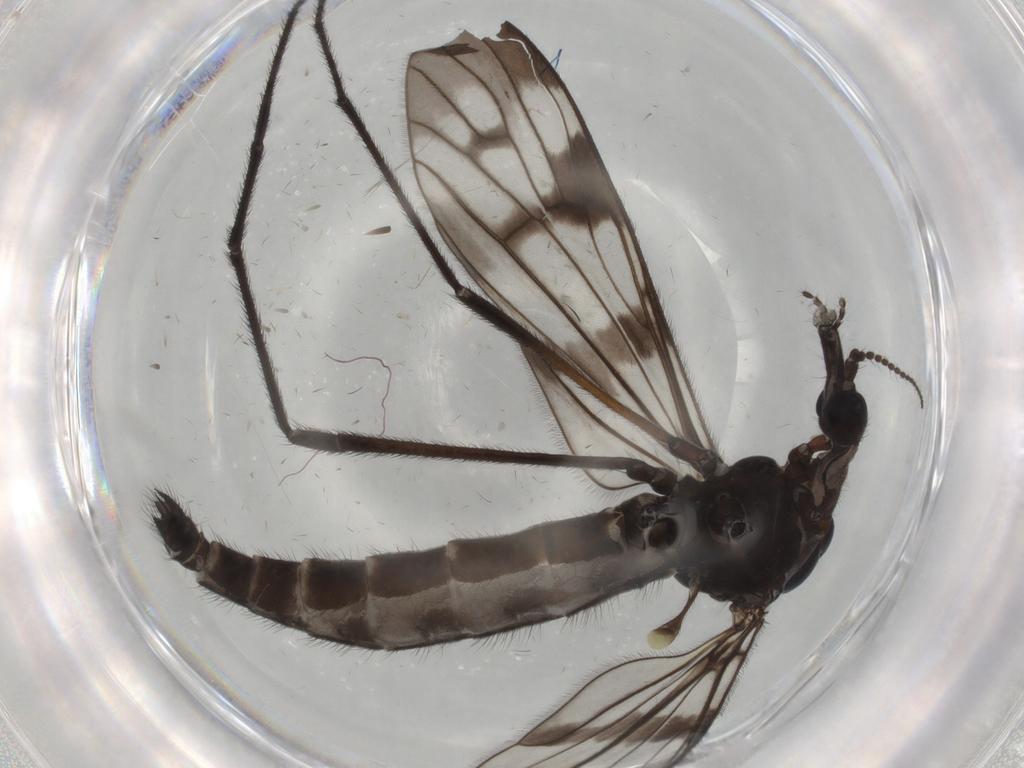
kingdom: Animalia
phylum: Arthropoda
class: Insecta
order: Diptera
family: Limoniidae
